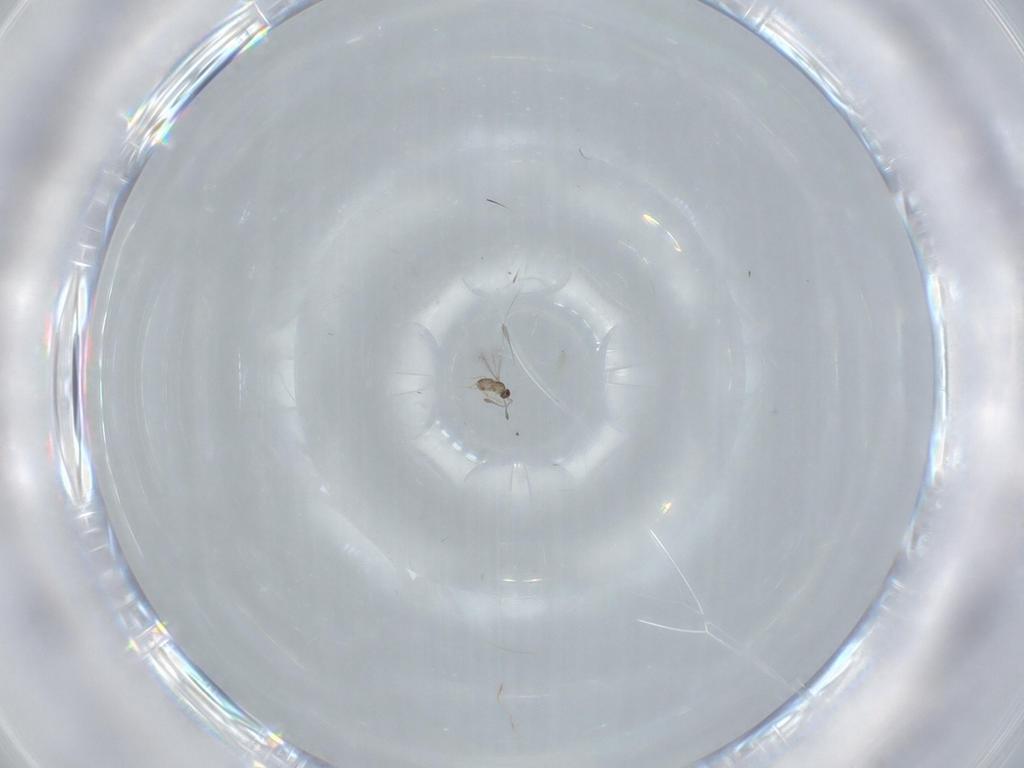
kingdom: Animalia
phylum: Arthropoda
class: Insecta
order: Hymenoptera
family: Mymaridae
